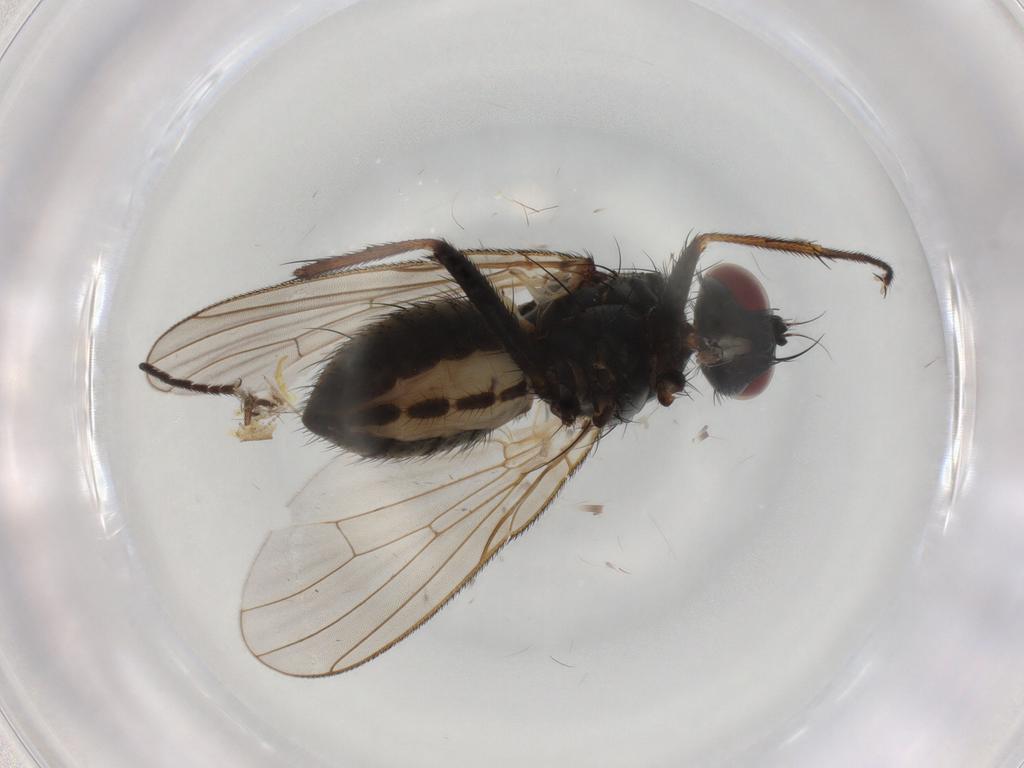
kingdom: Animalia
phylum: Arthropoda
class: Insecta
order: Diptera
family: Muscidae
